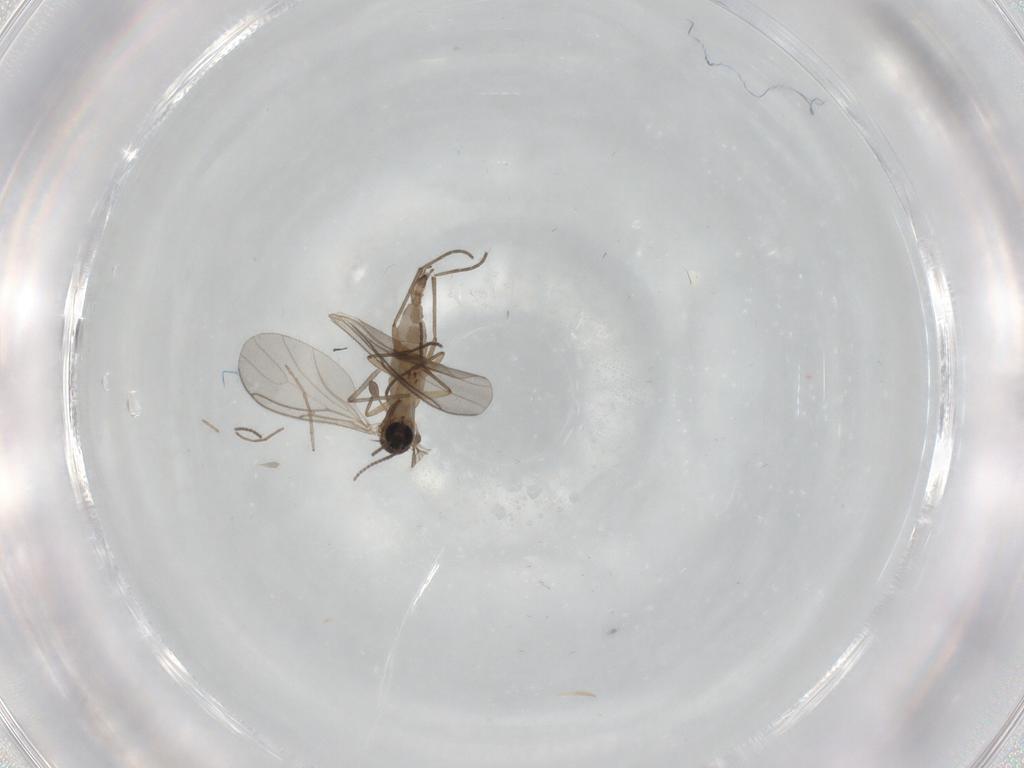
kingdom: Animalia
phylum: Arthropoda
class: Insecta
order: Diptera
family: Sciaridae
